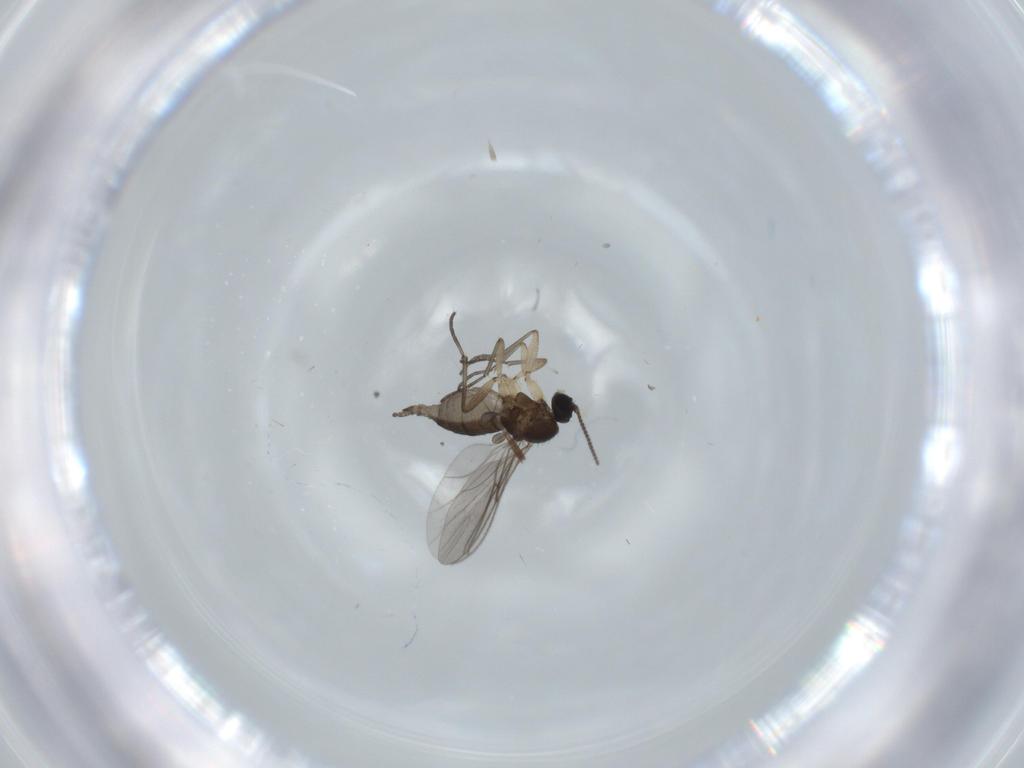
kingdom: Animalia
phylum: Arthropoda
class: Insecta
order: Diptera
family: Sciaridae
